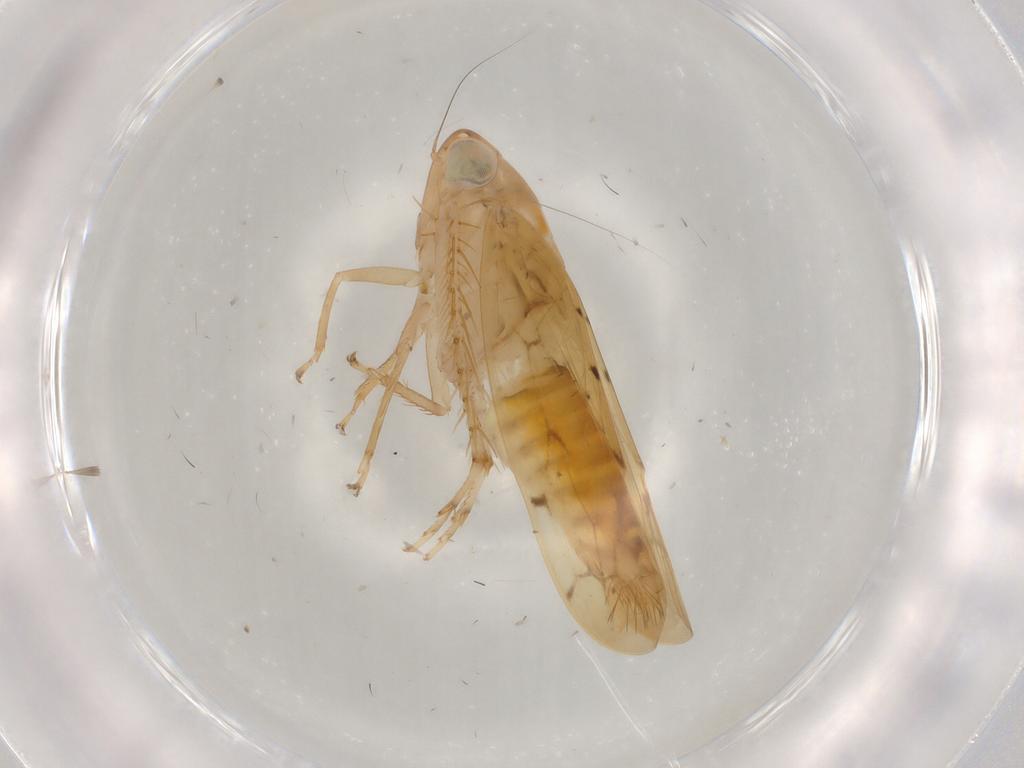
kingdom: Animalia
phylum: Arthropoda
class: Insecta
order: Hemiptera
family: Cicadellidae
